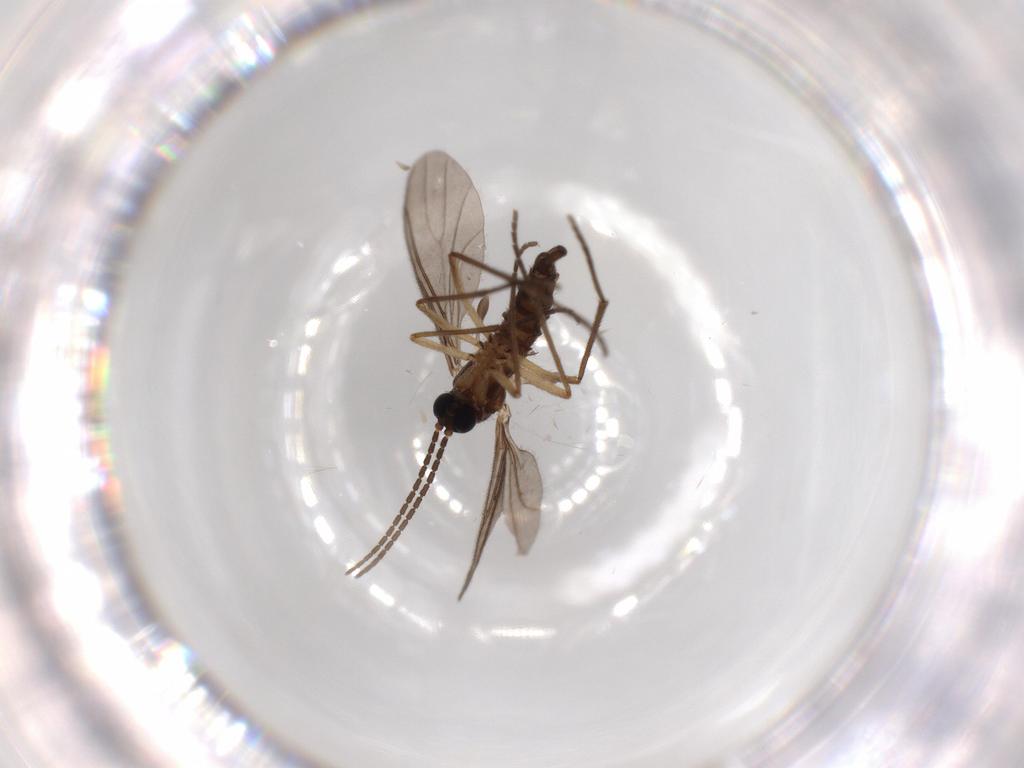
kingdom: Animalia
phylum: Arthropoda
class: Insecta
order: Diptera
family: Sciaridae
